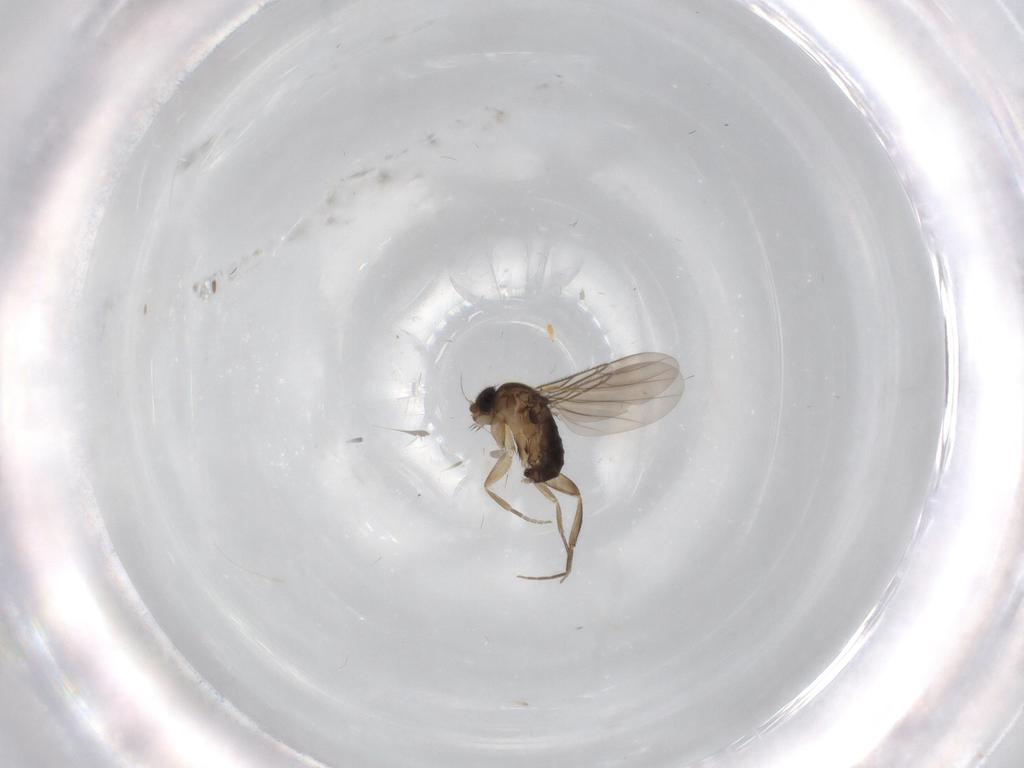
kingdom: Animalia
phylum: Arthropoda
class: Insecta
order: Diptera
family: Phoridae
